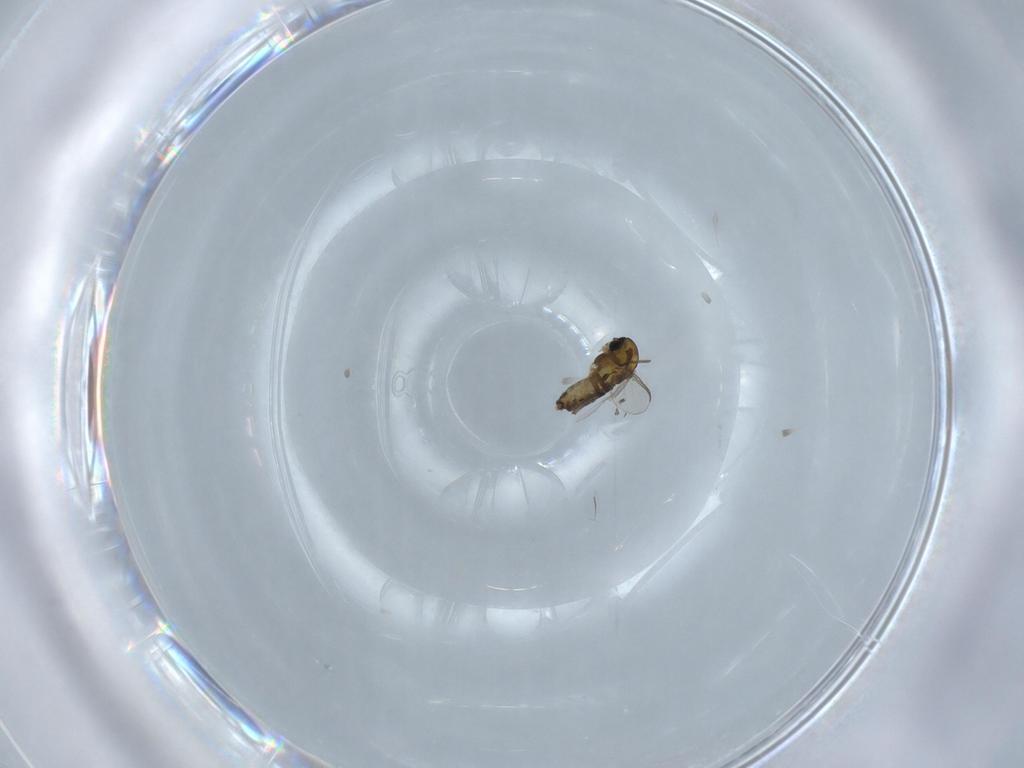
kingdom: Animalia
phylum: Arthropoda
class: Insecta
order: Diptera
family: Chironomidae
